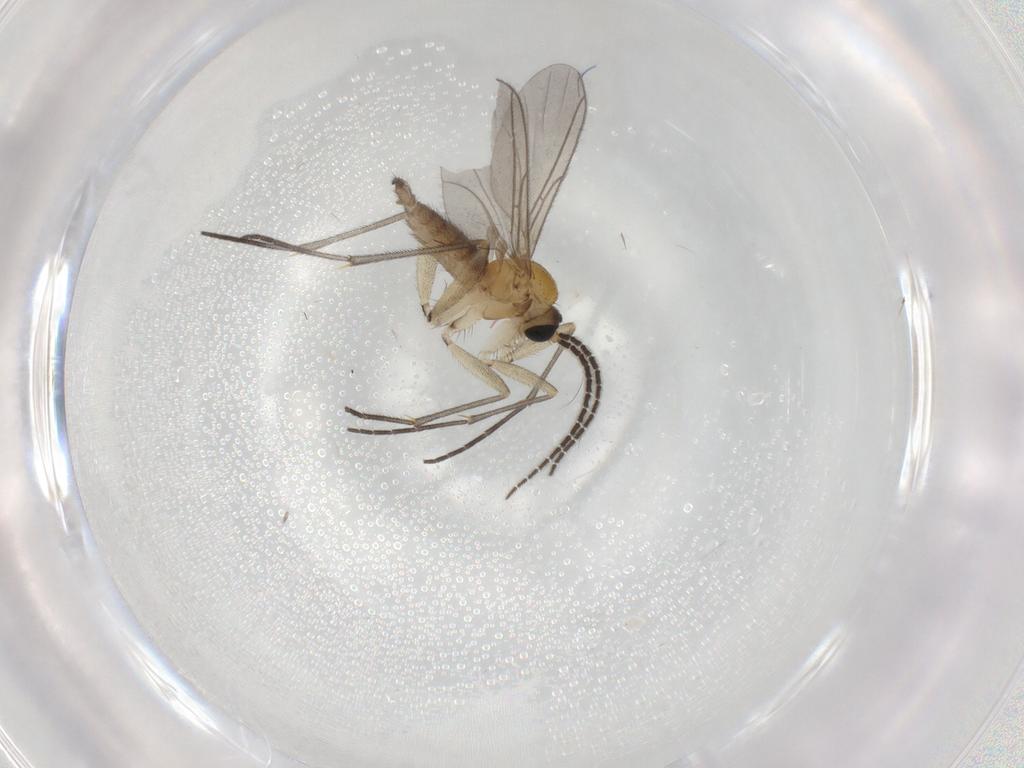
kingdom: Animalia
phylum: Arthropoda
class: Insecta
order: Diptera
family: Sciaridae
